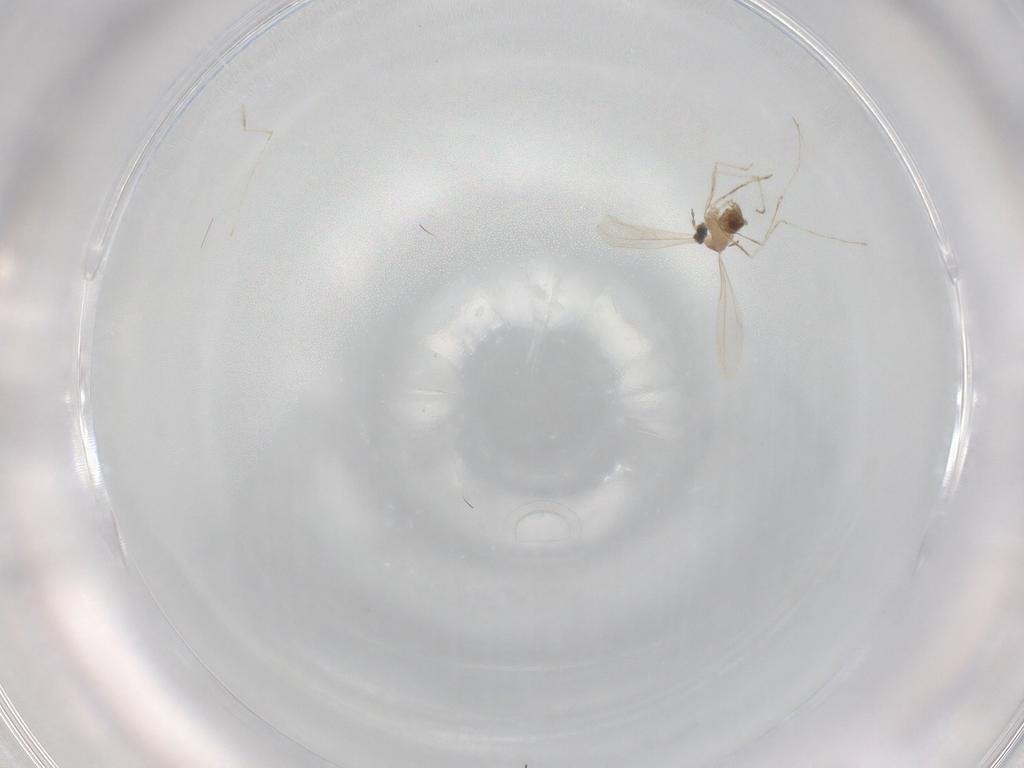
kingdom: Animalia
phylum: Arthropoda
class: Insecta
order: Diptera
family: Cecidomyiidae
